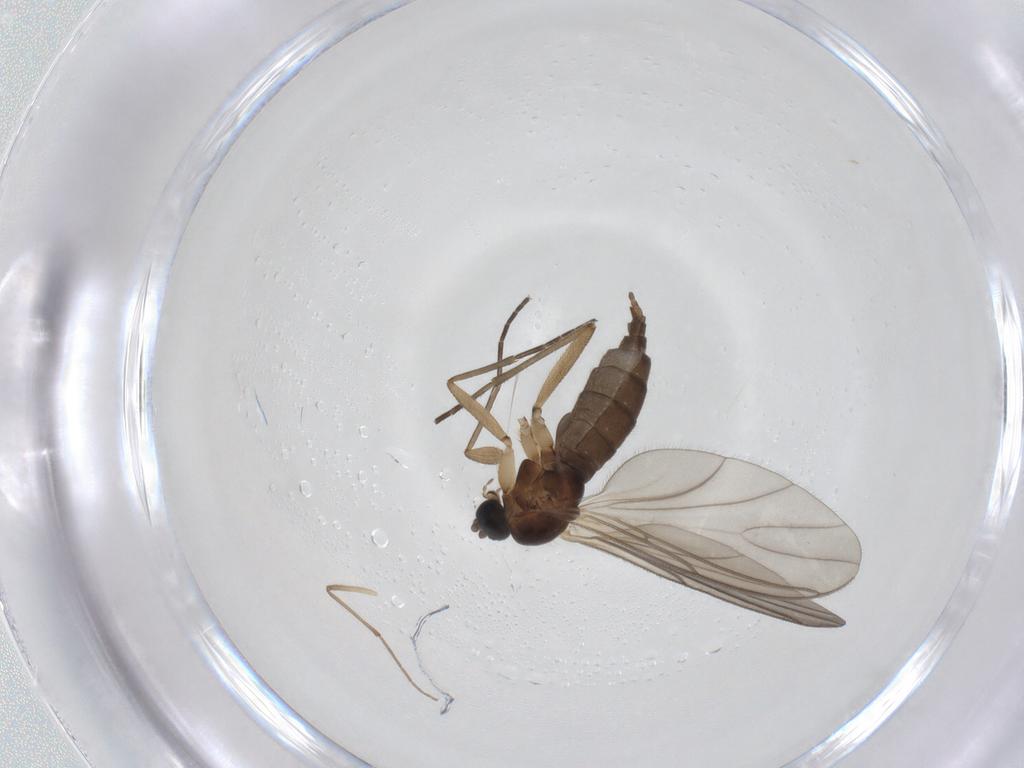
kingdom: Animalia
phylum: Arthropoda
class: Insecta
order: Diptera
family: Sciaridae
